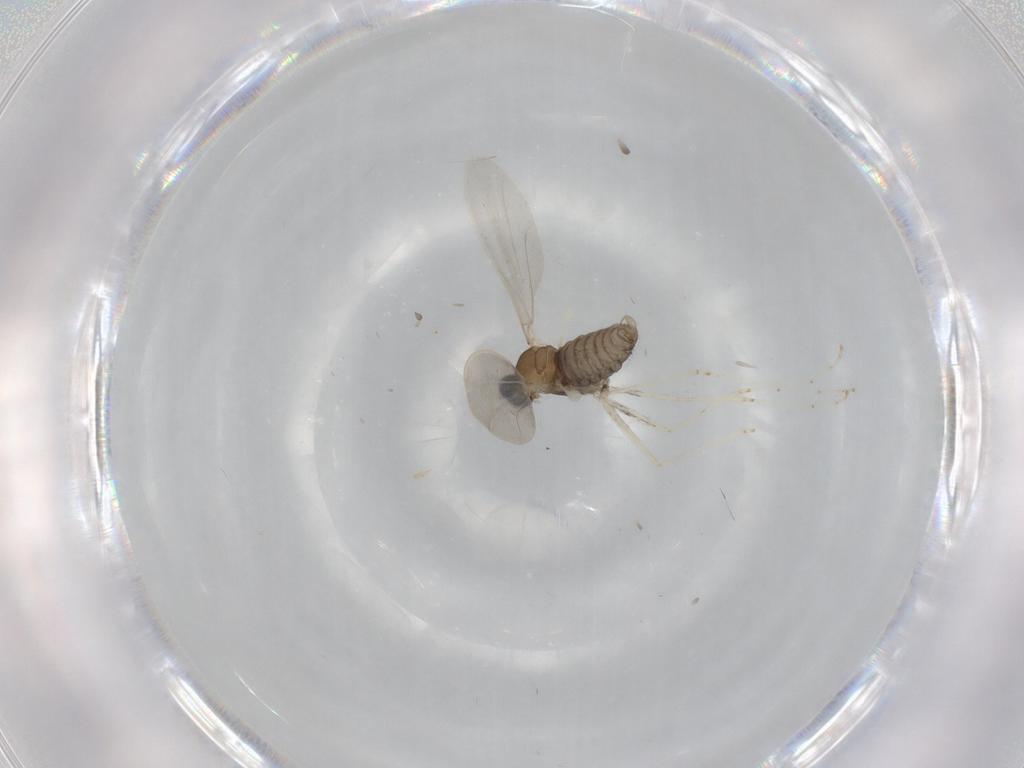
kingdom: Animalia
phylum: Arthropoda
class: Insecta
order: Diptera
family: Cecidomyiidae
